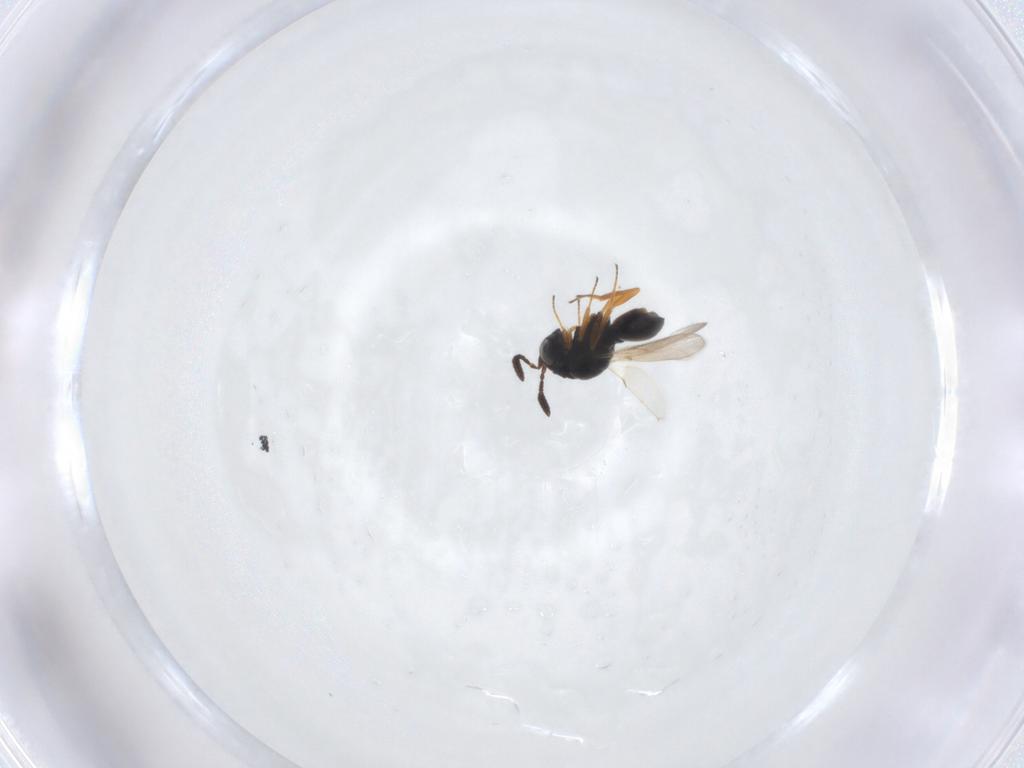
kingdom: Animalia
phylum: Arthropoda
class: Insecta
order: Hymenoptera
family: Scelionidae
